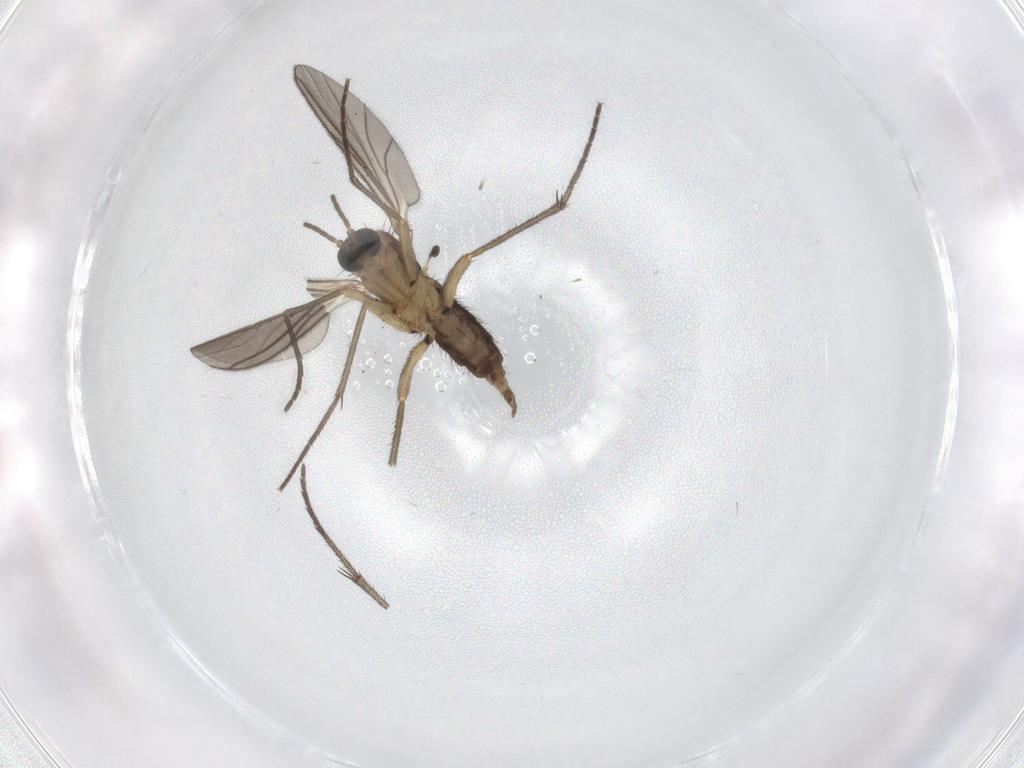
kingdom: Animalia
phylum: Arthropoda
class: Insecta
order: Diptera
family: Sciaridae
